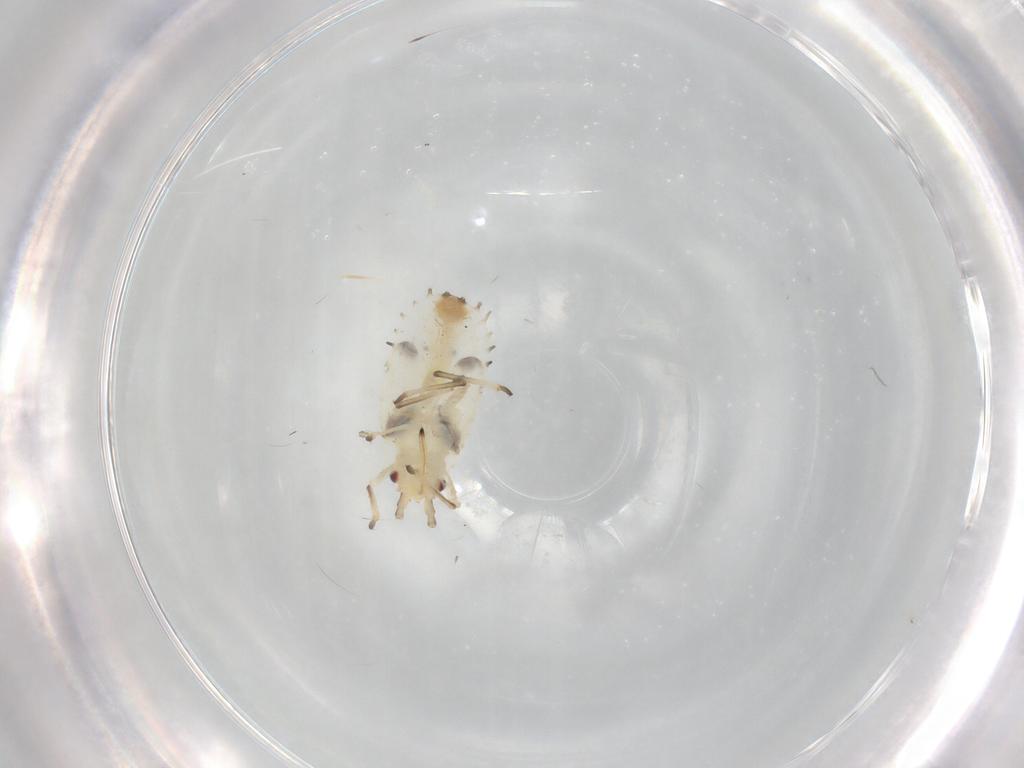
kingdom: Animalia
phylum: Arthropoda
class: Insecta
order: Hemiptera
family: Tingidae
